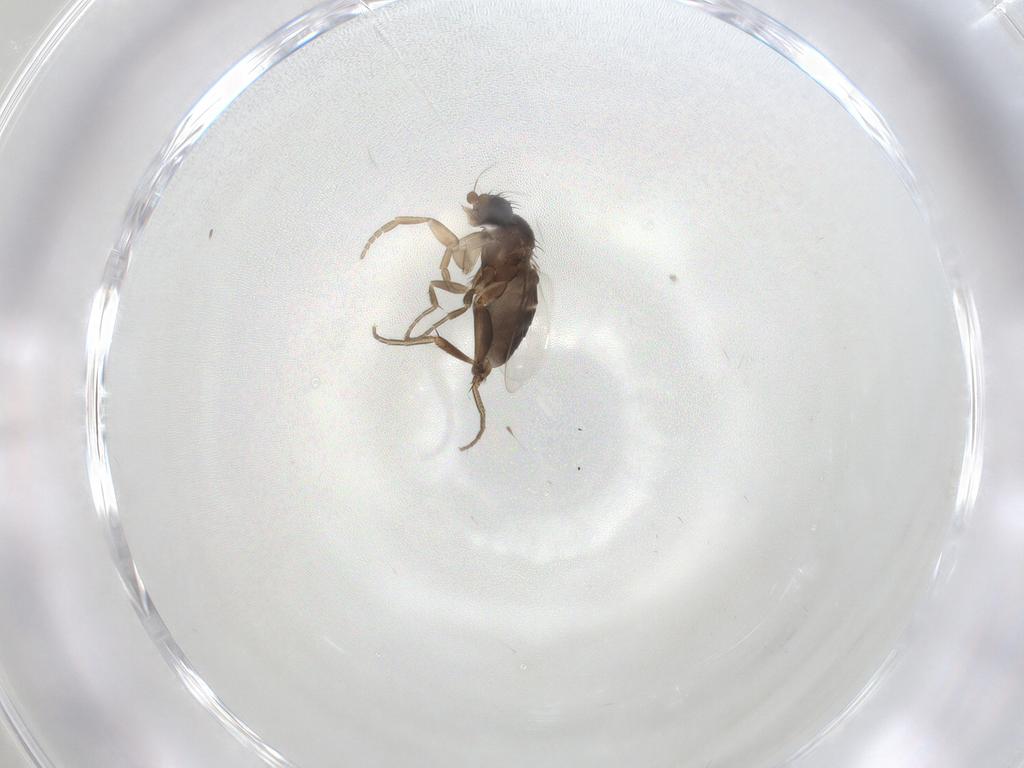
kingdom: Animalia
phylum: Arthropoda
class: Insecta
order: Diptera
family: Phoridae
